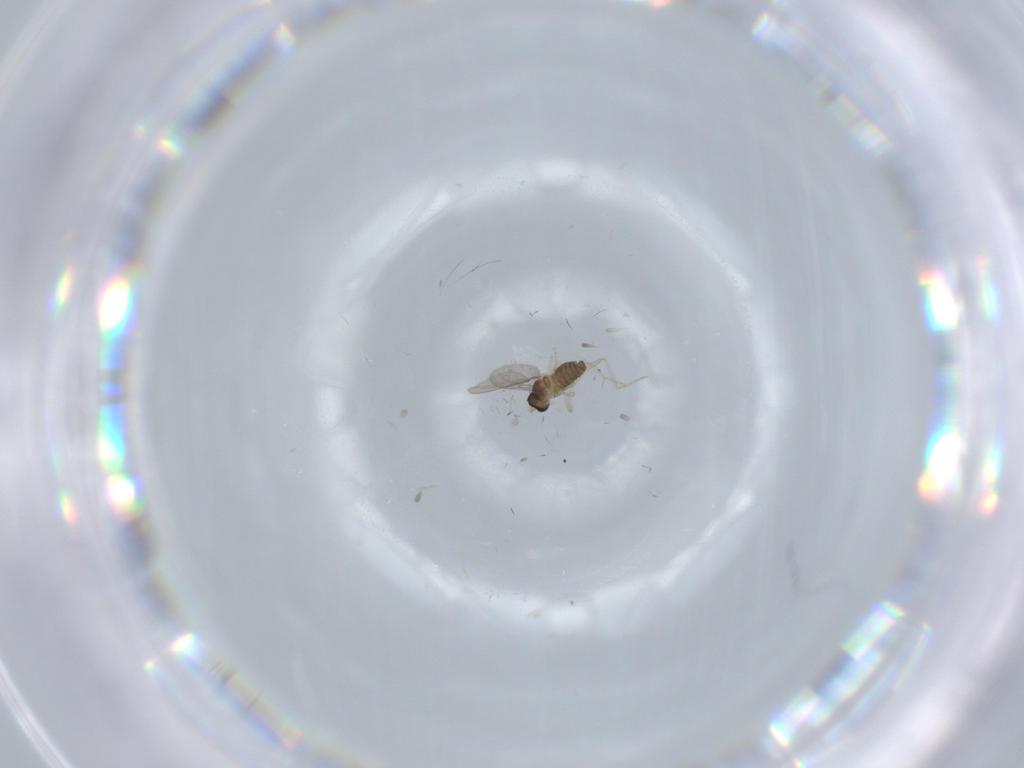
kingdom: Animalia
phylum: Arthropoda
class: Insecta
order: Diptera
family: Cecidomyiidae
